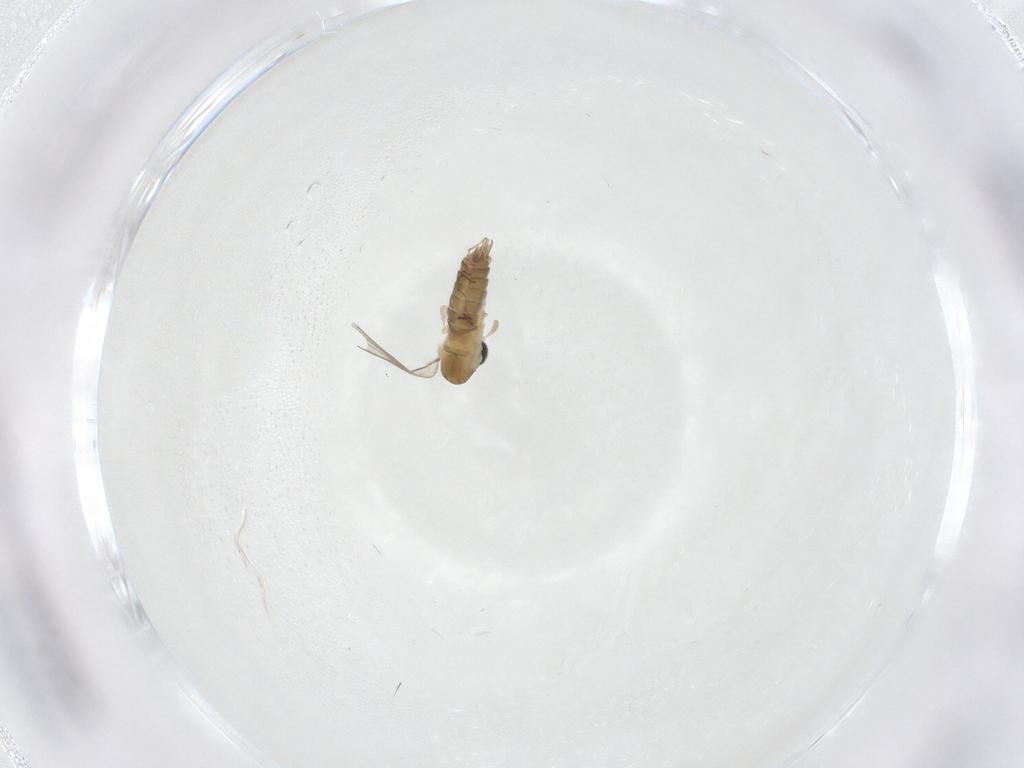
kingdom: Animalia
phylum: Arthropoda
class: Insecta
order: Diptera
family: Psychodidae
